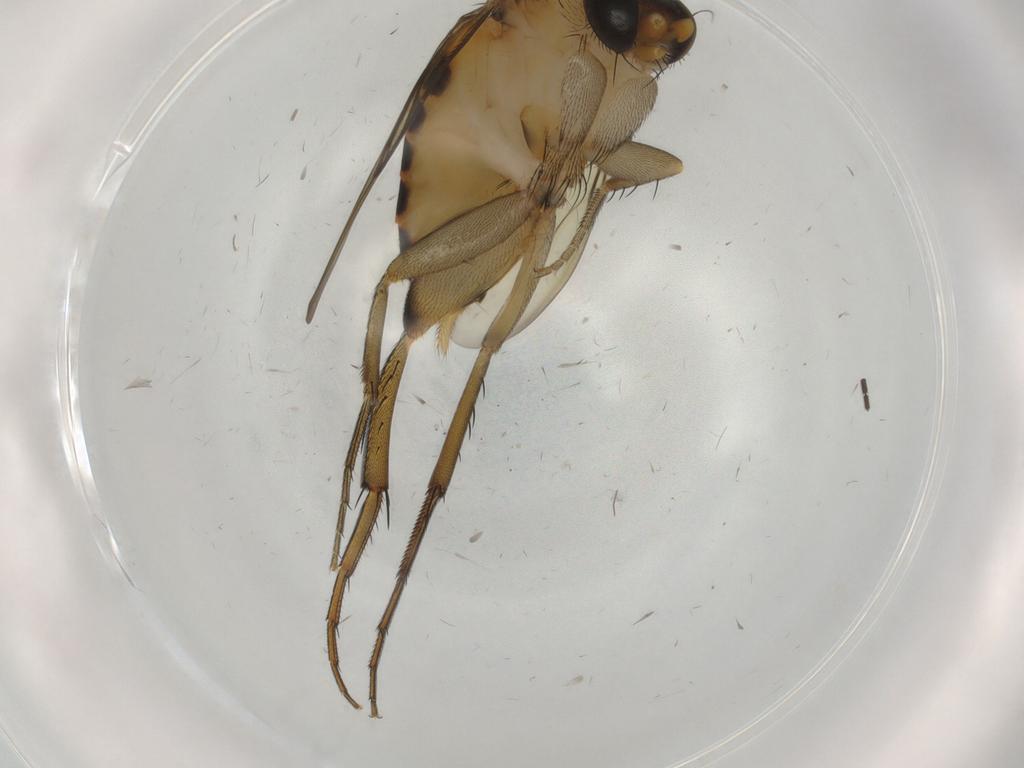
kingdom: Animalia
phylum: Arthropoda
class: Insecta
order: Diptera
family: Phoridae
